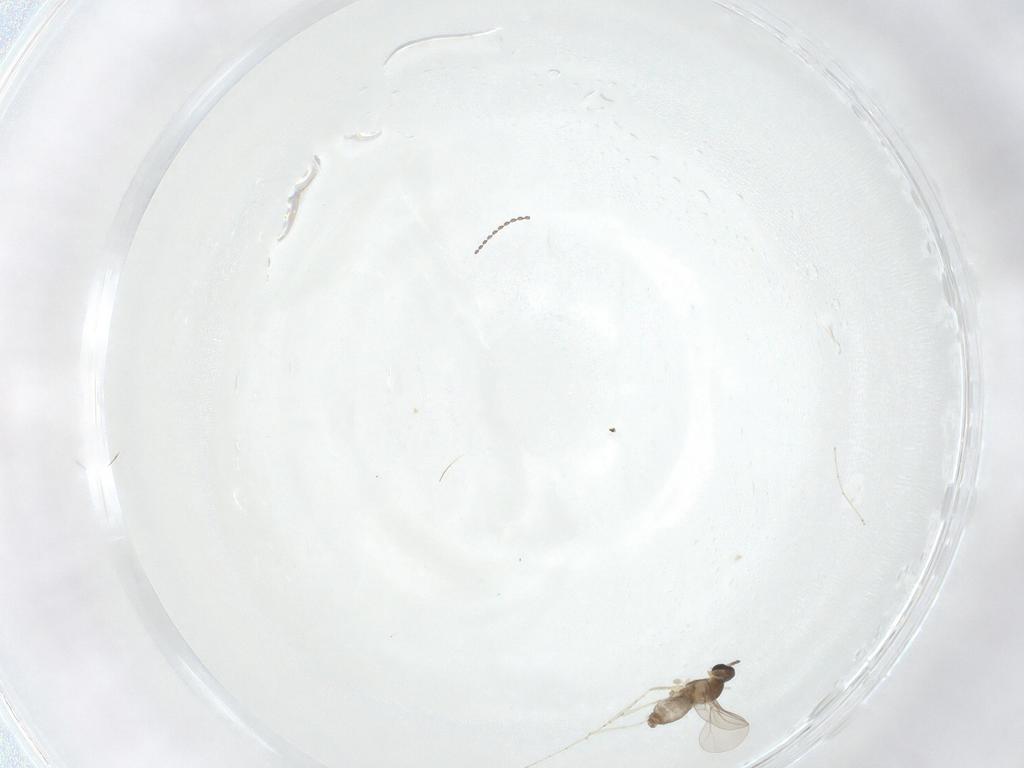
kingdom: Animalia
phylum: Arthropoda
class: Insecta
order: Diptera
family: Cecidomyiidae
